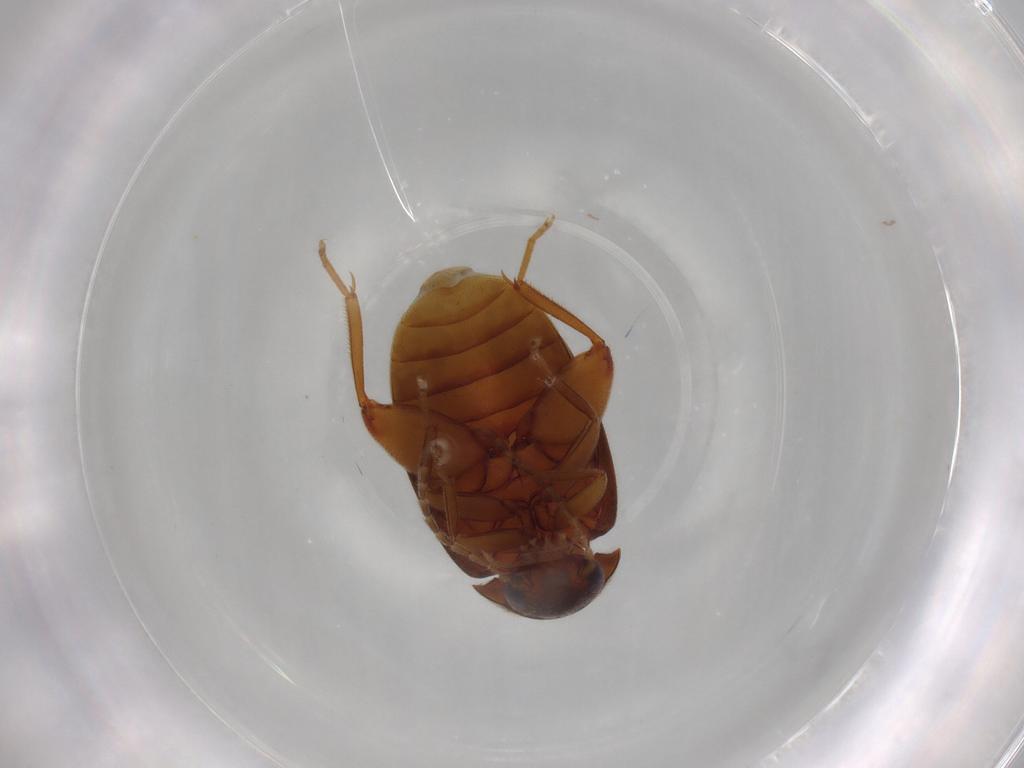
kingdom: Animalia
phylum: Arthropoda
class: Insecta
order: Coleoptera
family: Scirtidae
